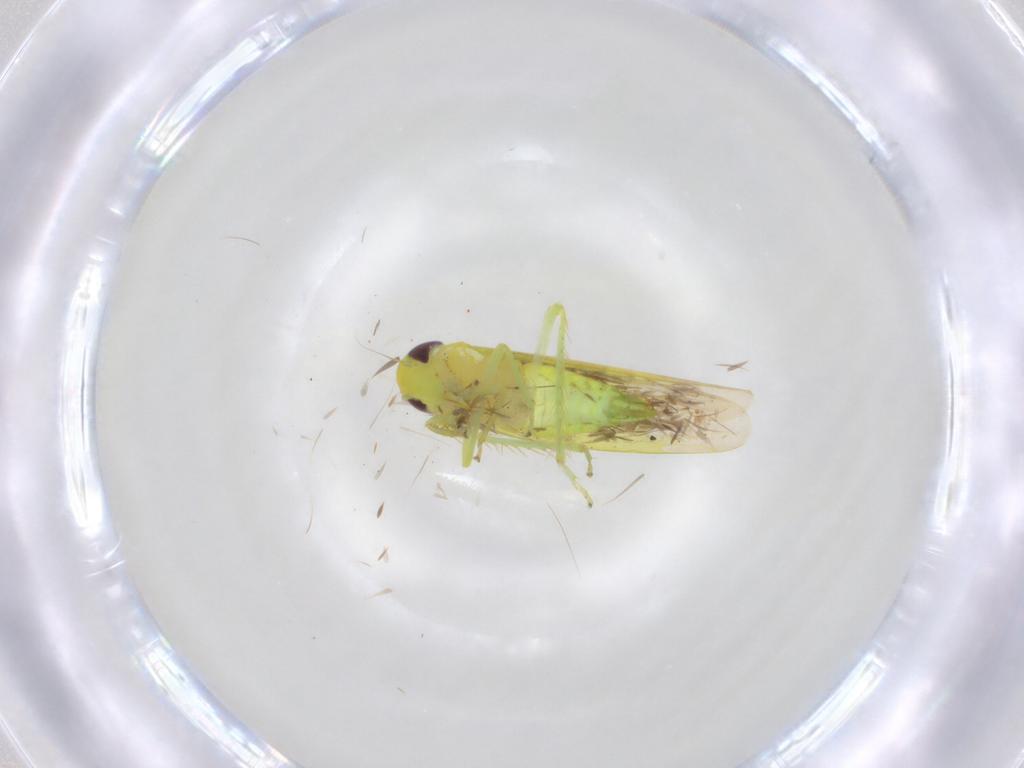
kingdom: Animalia
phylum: Arthropoda
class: Insecta
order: Hemiptera
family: Cicadellidae
